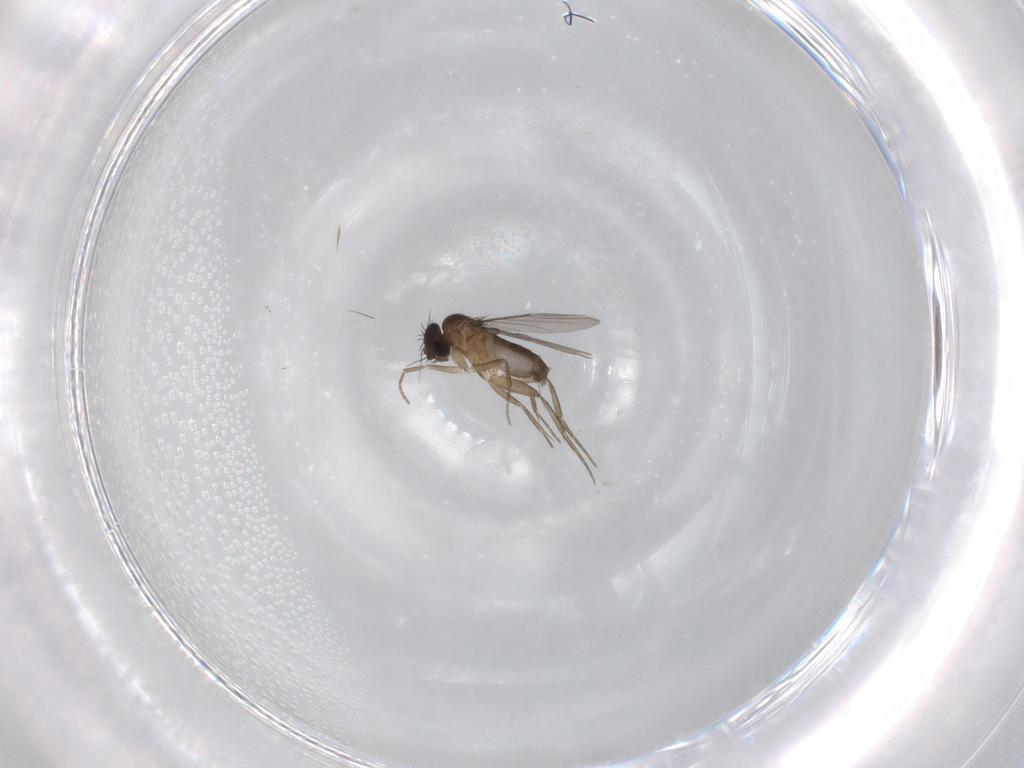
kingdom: Animalia
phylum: Arthropoda
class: Insecta
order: Diptera
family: Phoridae
